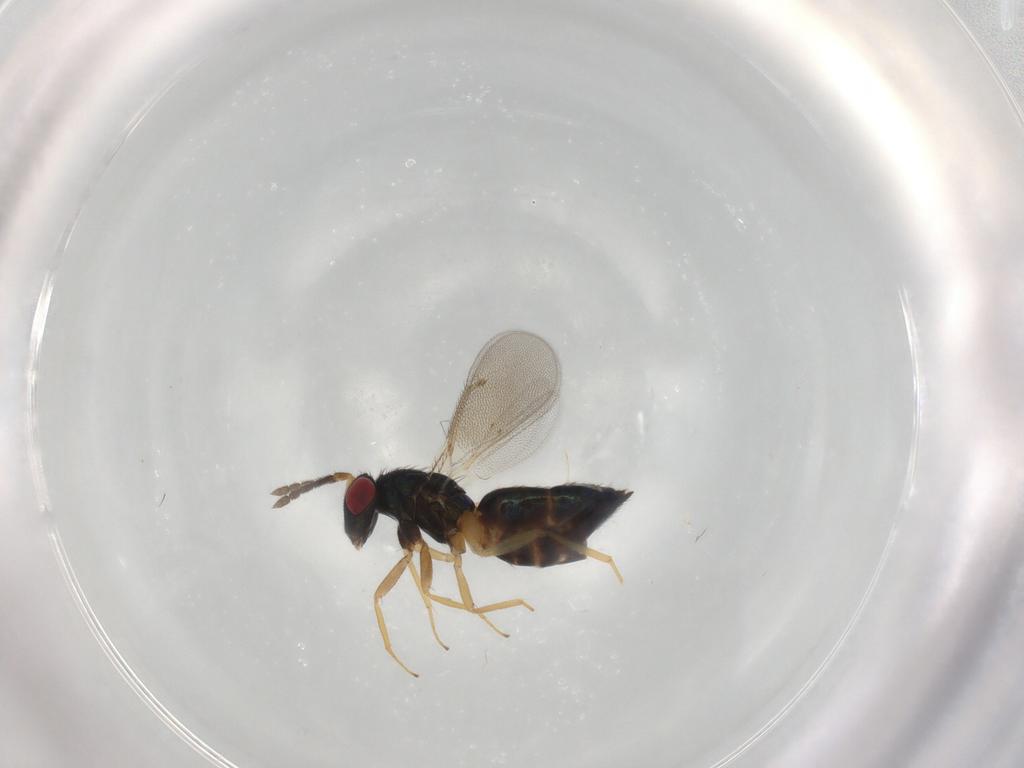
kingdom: Animalia
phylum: Arthropoda
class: Insecta
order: Hymenoptera
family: Eulophidae
